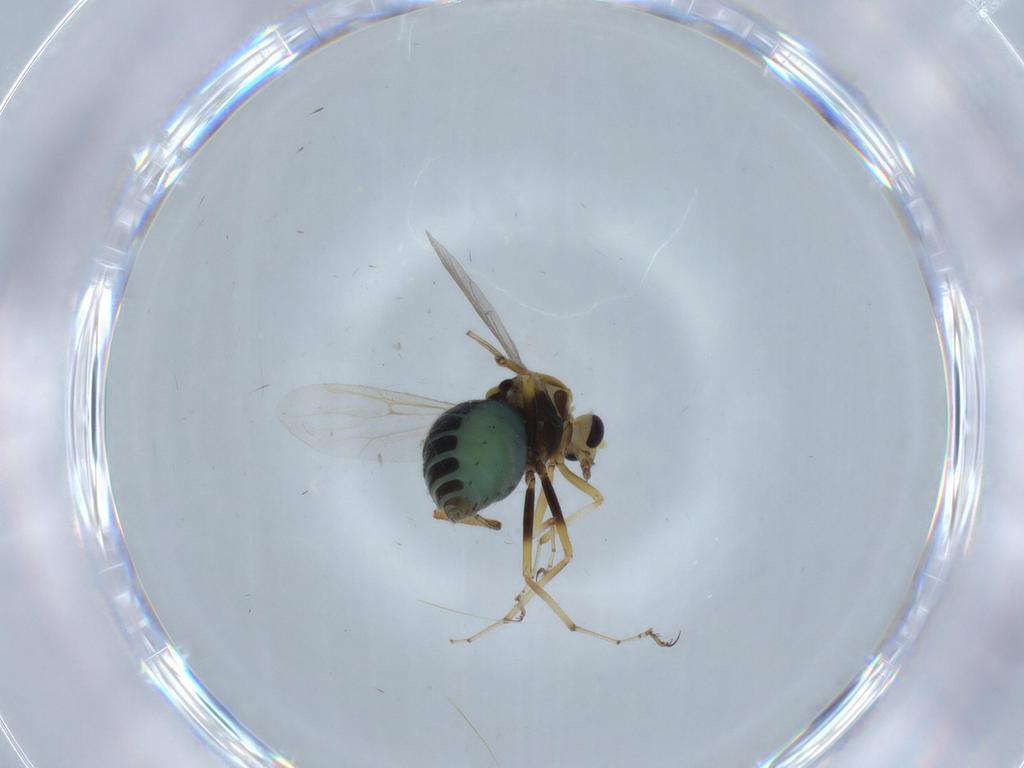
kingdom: Animalia
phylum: Arthropoda
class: Insecta
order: Diptera
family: Ceratopogonidae
